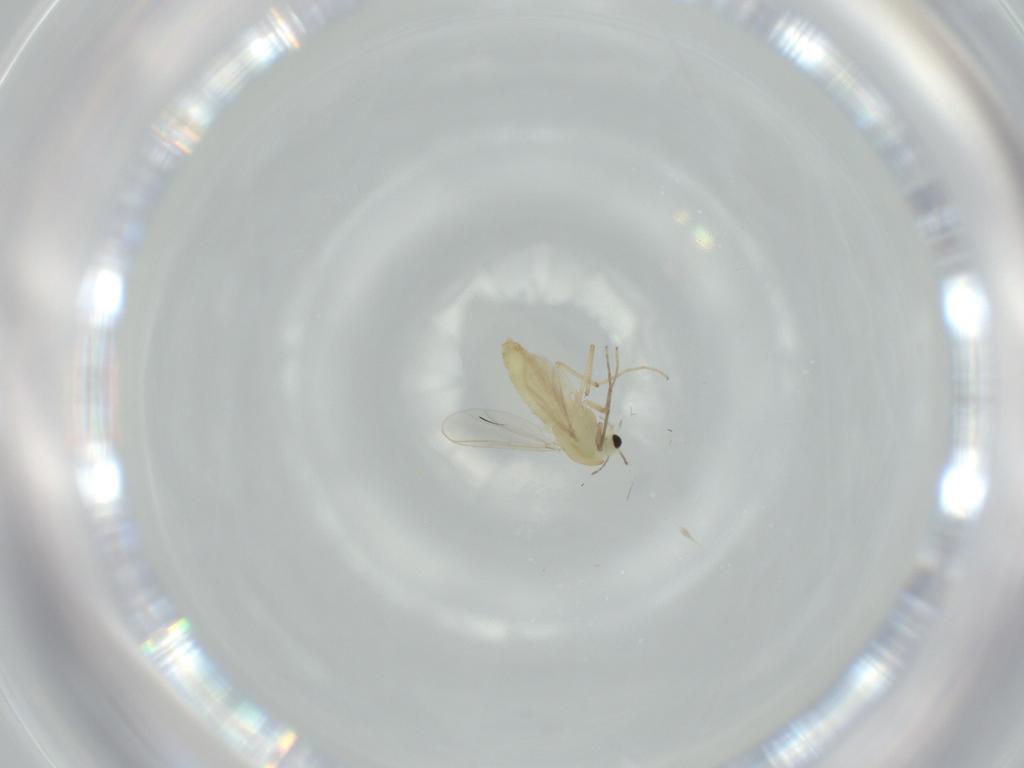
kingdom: Animalia
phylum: Arthropoda
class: Insecta
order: Diptera
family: Chironomidae
